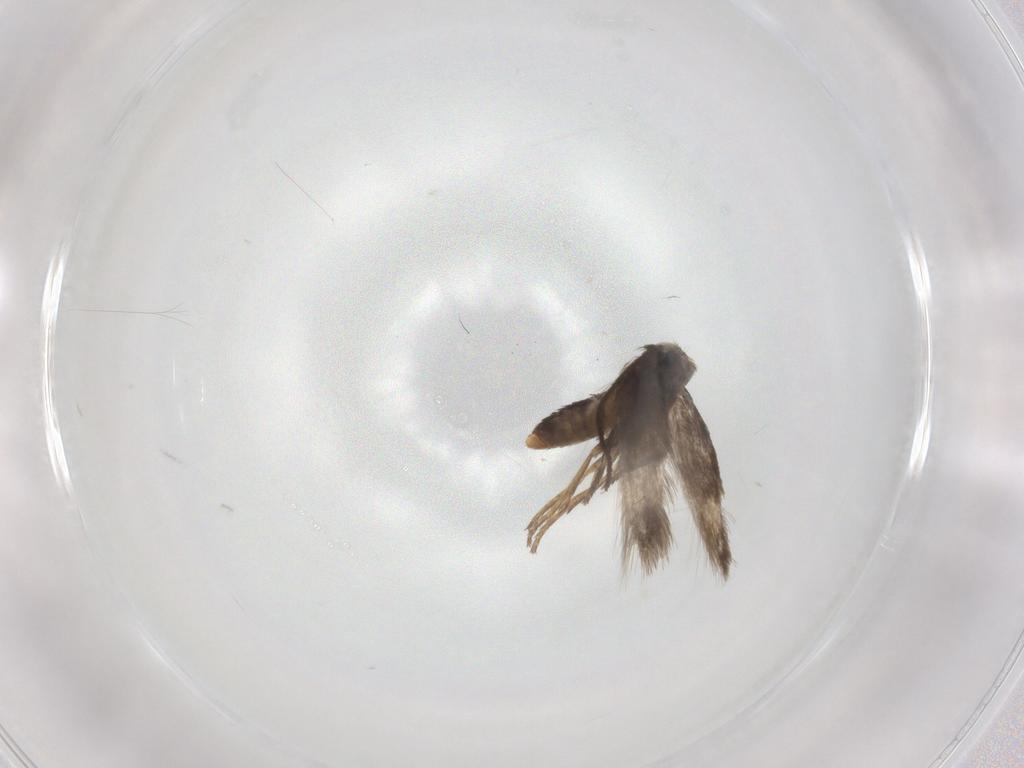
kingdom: Animalia
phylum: Arthropoda
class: Insecta
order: Lepidoptera
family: Nepticulidae
